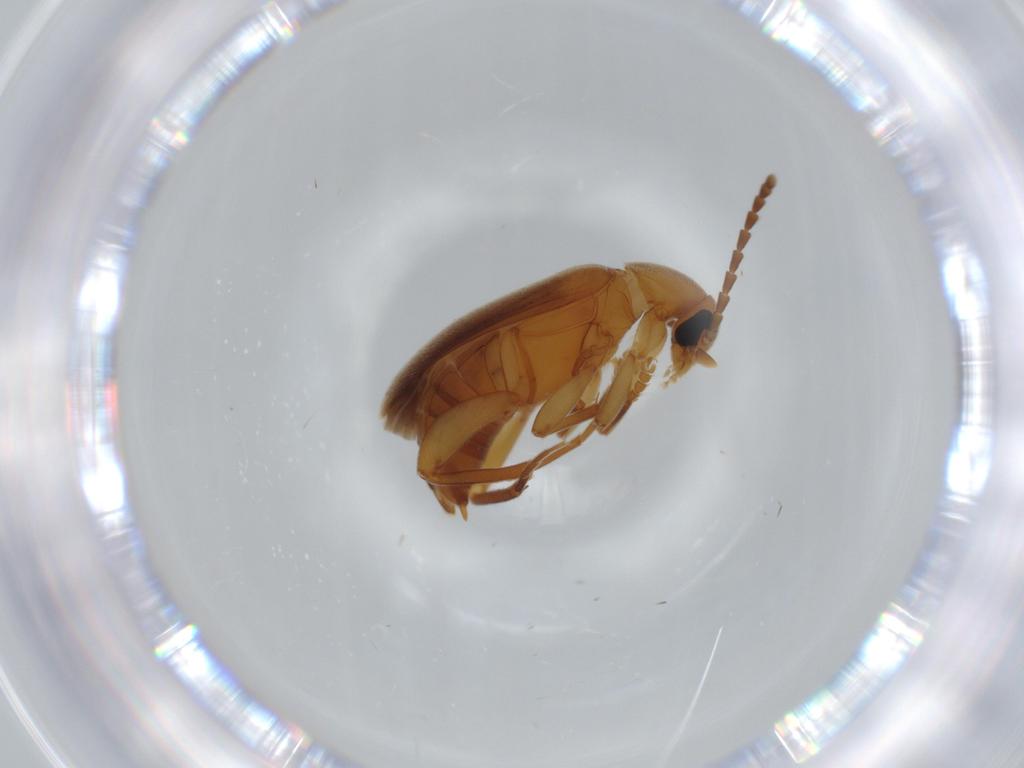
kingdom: Animalia
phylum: Arthropoda
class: Insecta
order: Coleoptera
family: Scraptiidae
